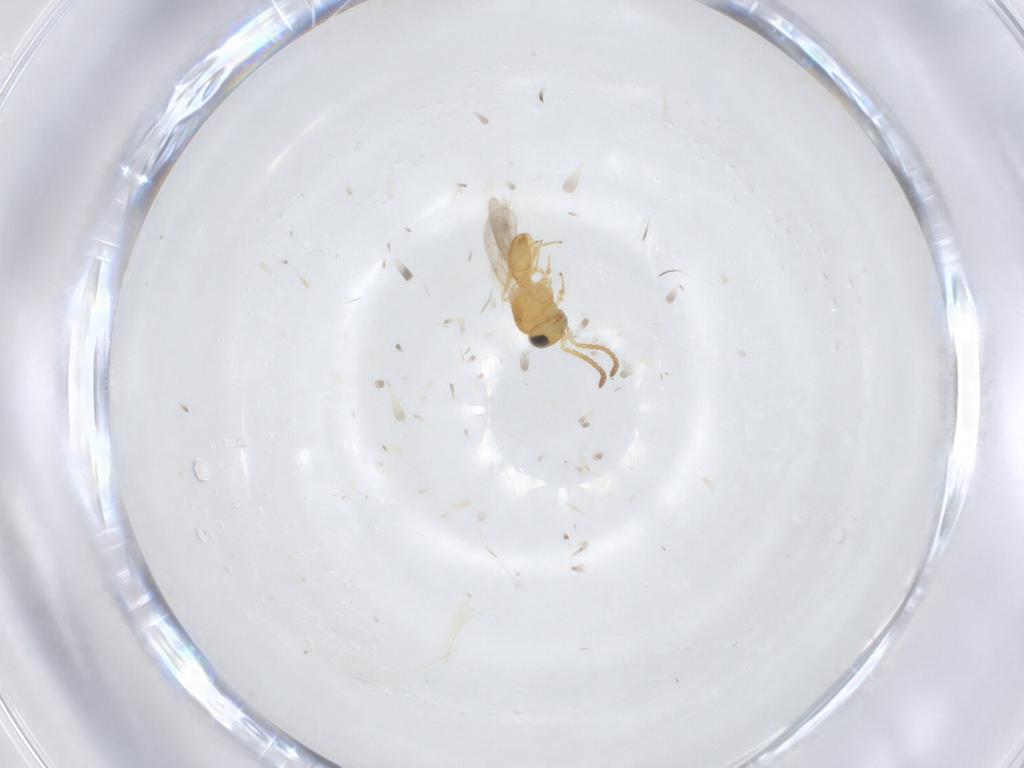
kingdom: Animalia
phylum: Arthropoda
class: Insecta
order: Hymenoptera
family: Scelionidae
